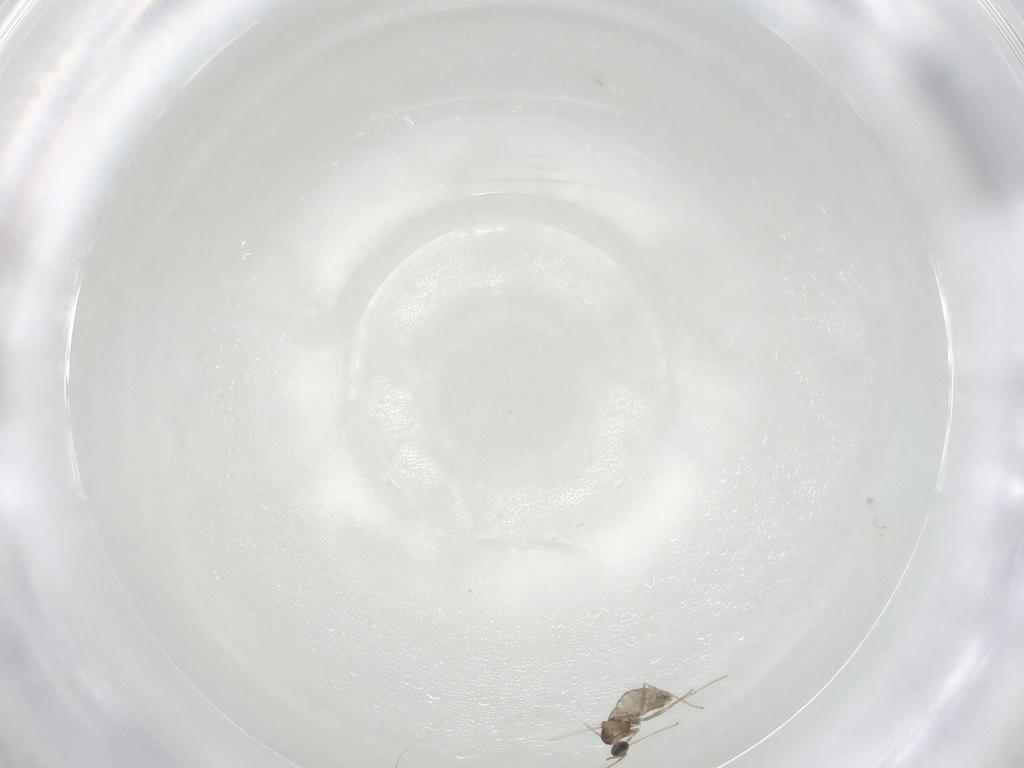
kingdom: Animalia
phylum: Arthropoda
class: Insecta
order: Diptera
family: Cecidomyiidae
